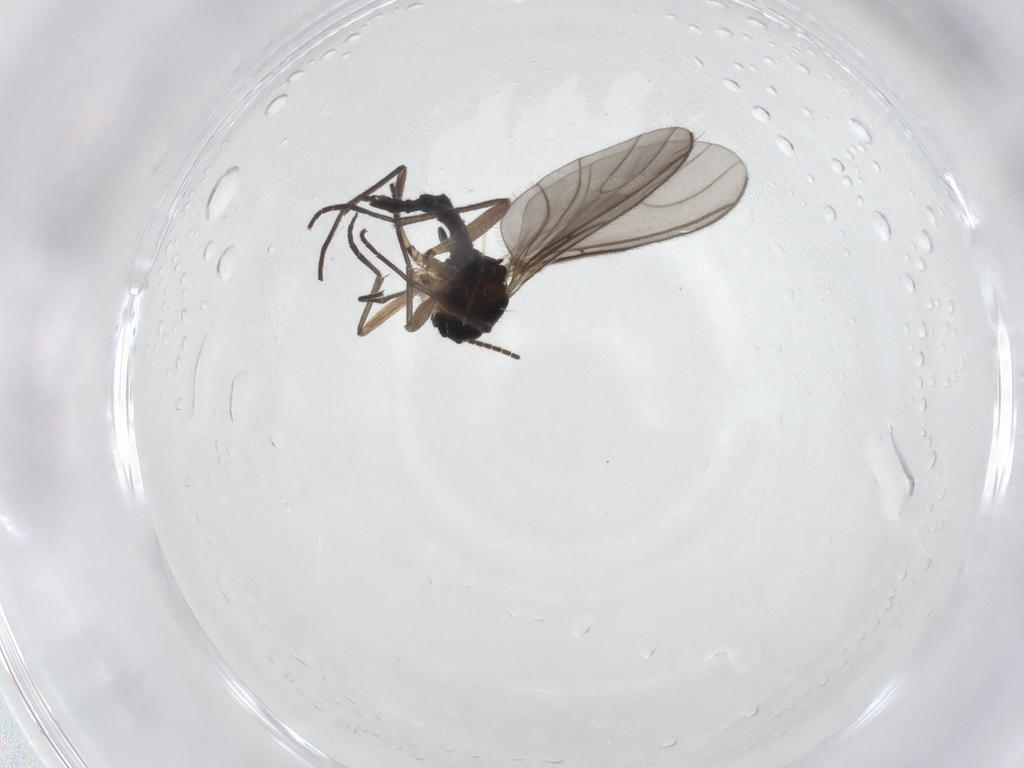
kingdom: Animalia
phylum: Arthropoda
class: Insecta
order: Diptera
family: Sciaridae
